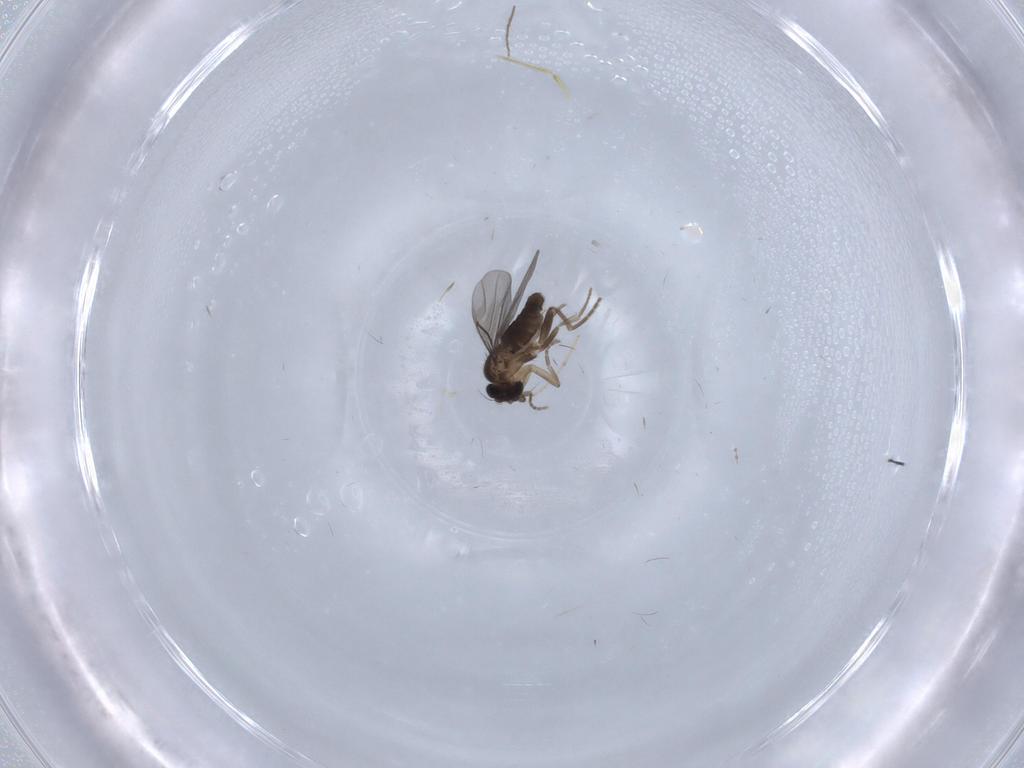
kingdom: Animalia
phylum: Arthropoda
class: Insecta
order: Diptera
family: Chironomidae
